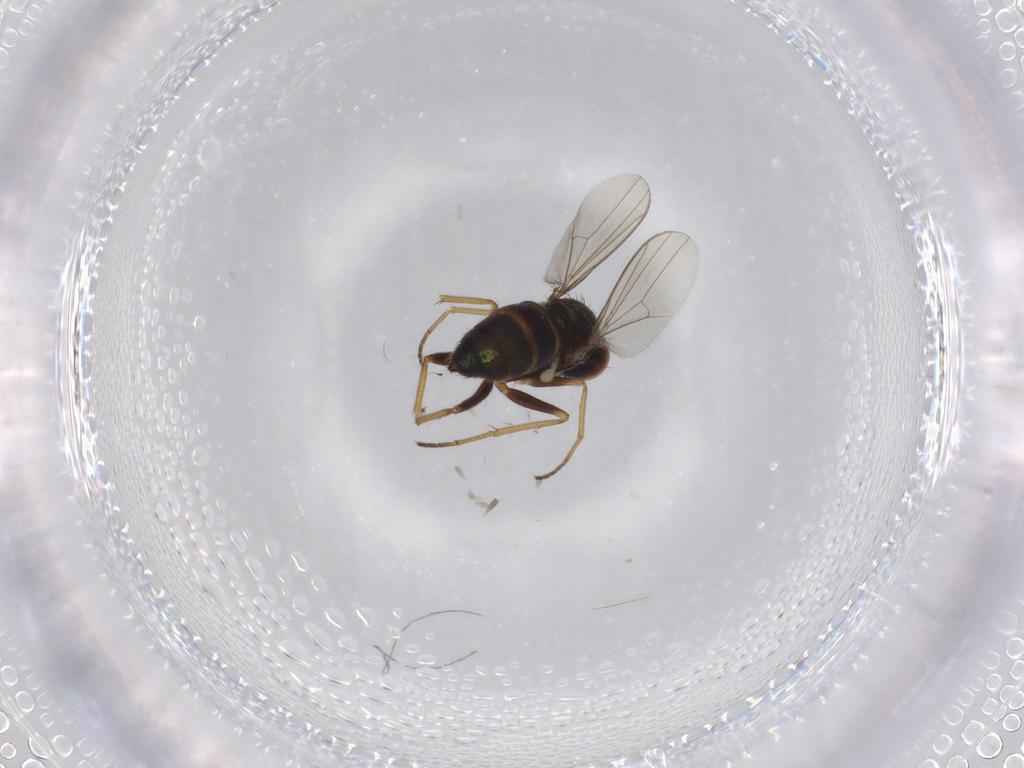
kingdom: Animalia
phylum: Arthropoda
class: Insecta
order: Diptera
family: Dolichopodidae
